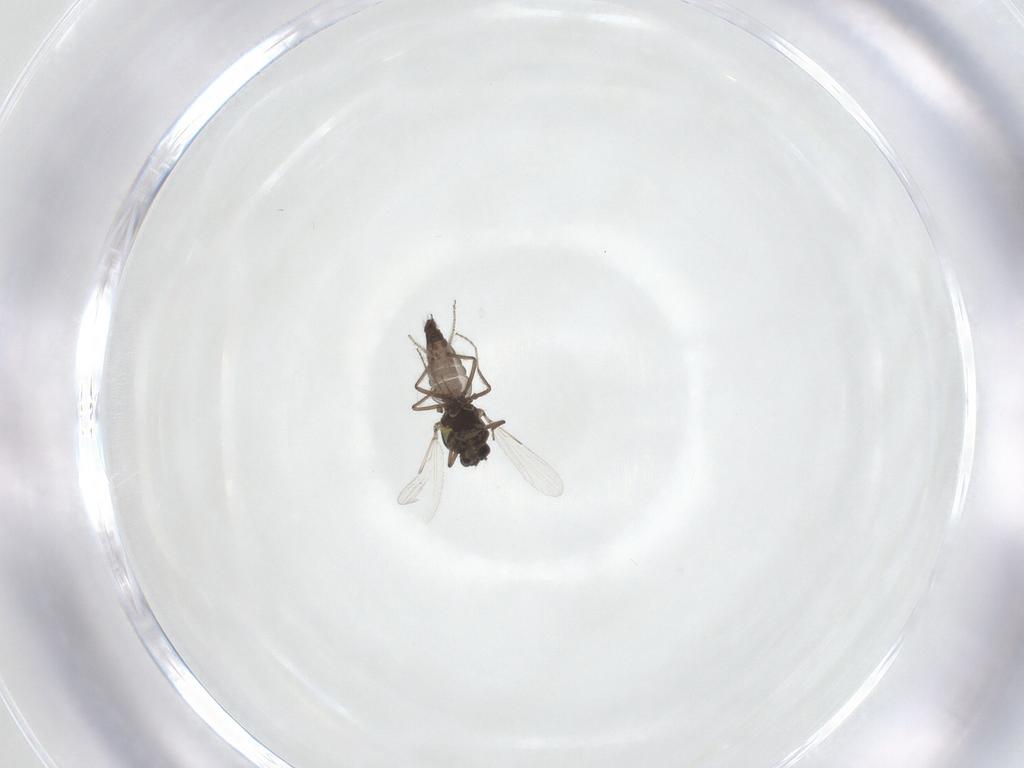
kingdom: Animalia
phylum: Arthropoda
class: Insecta
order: Diptera
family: Ceratopogonidae
